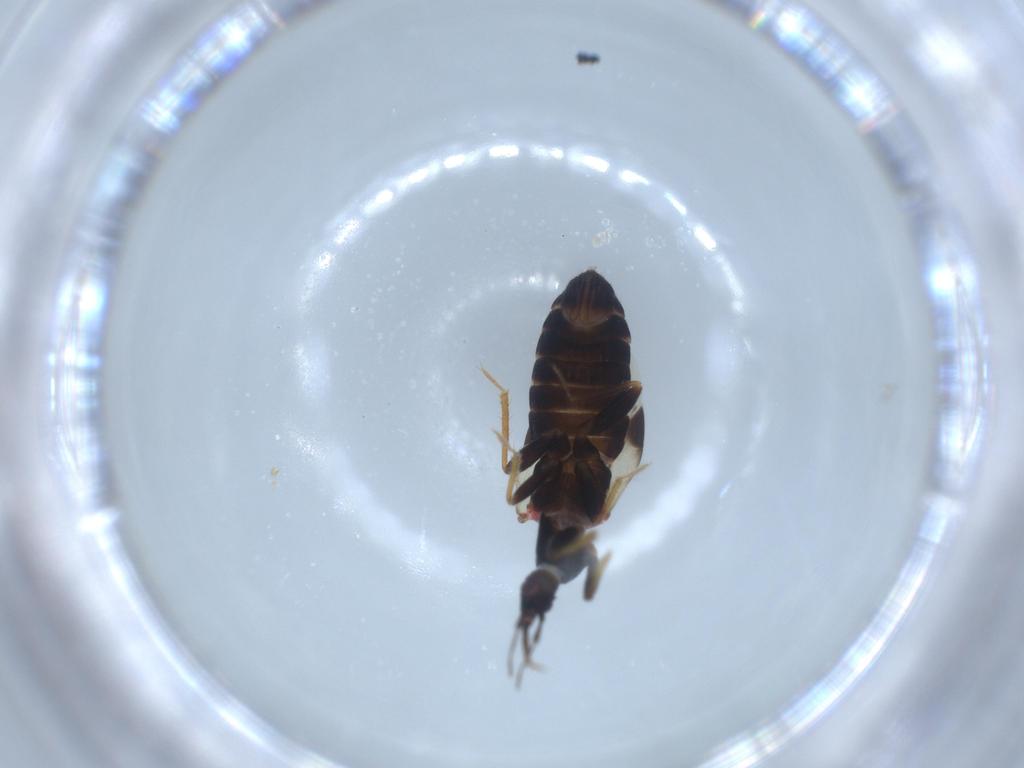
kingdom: Animalia
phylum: Arthropoda
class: Insecta
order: Hemiptera
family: Anthocoridae
